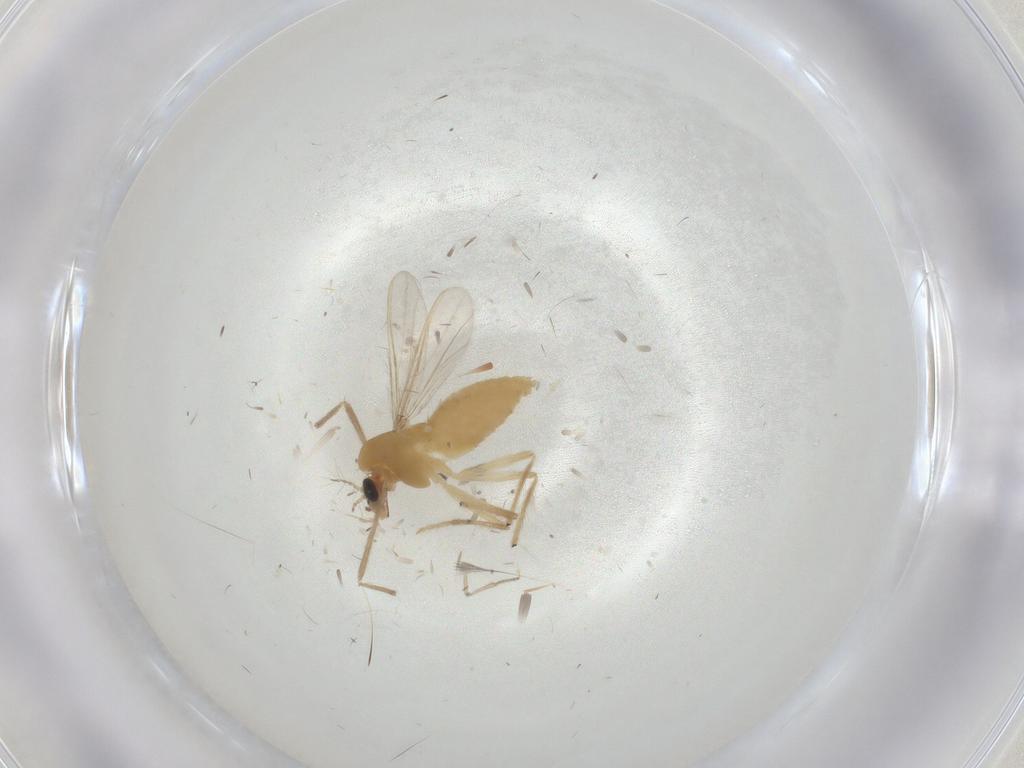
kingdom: Animalia
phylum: Arthropoda
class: Insecta
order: Diptera
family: Chironomidae
